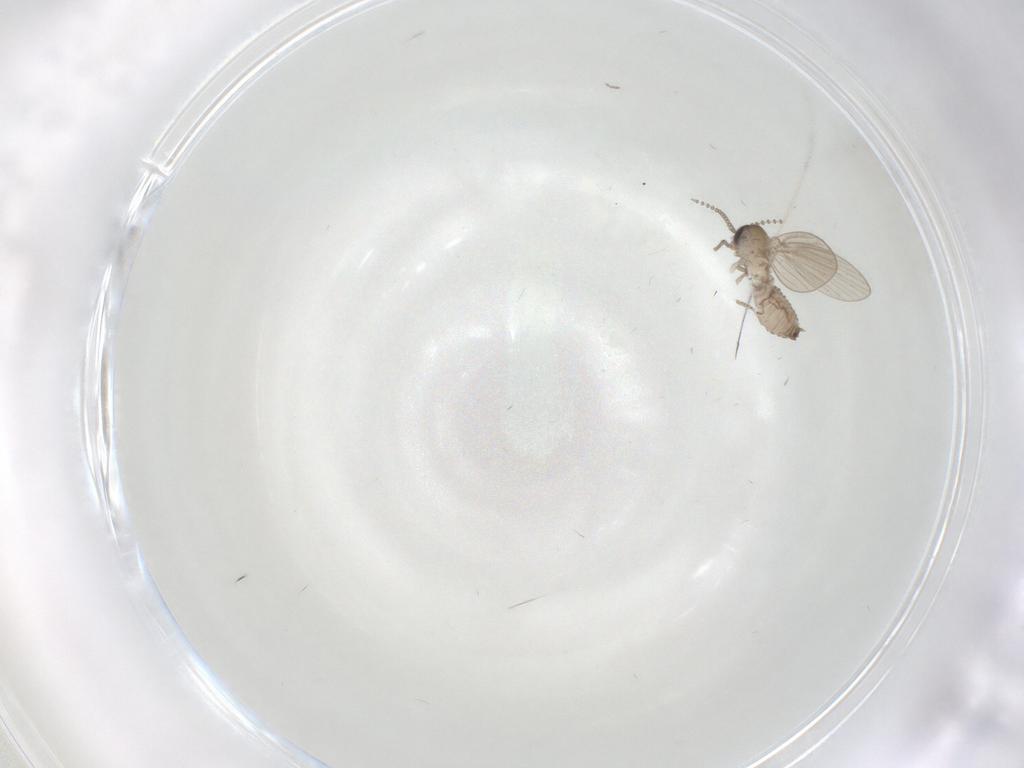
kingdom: Animalia
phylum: Arthropoda
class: Insecta
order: Diptera
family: Psychodidae
